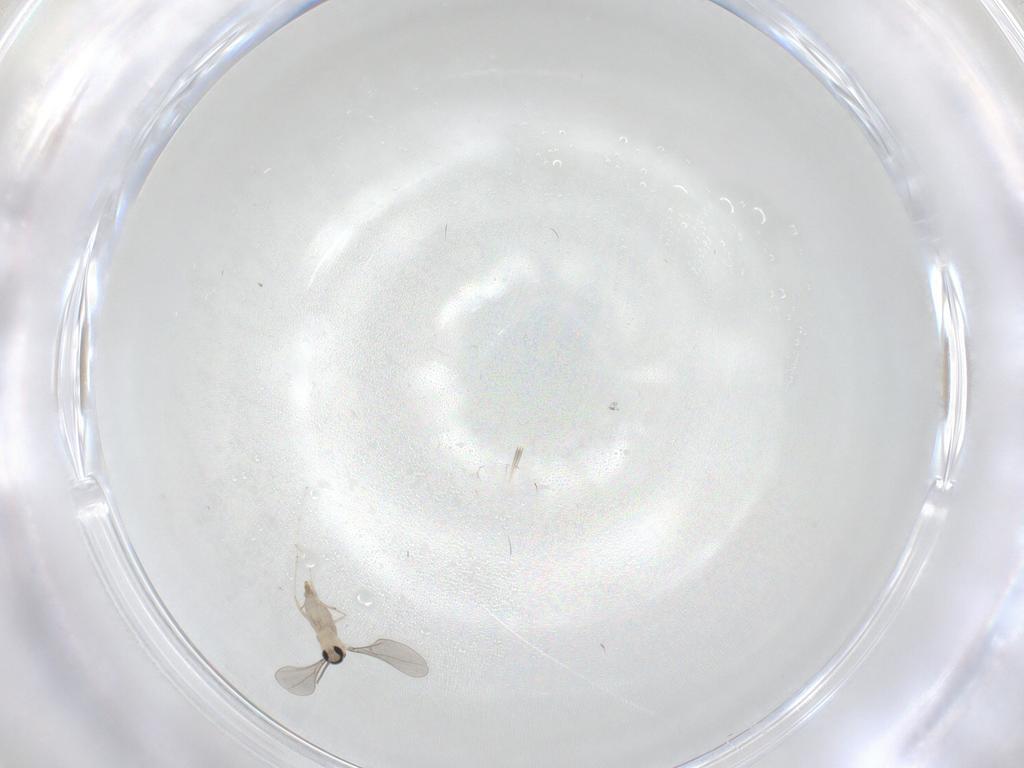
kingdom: Animalia
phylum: Arthropoda
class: Insecta
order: Diptera
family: Cecidomyiidae
